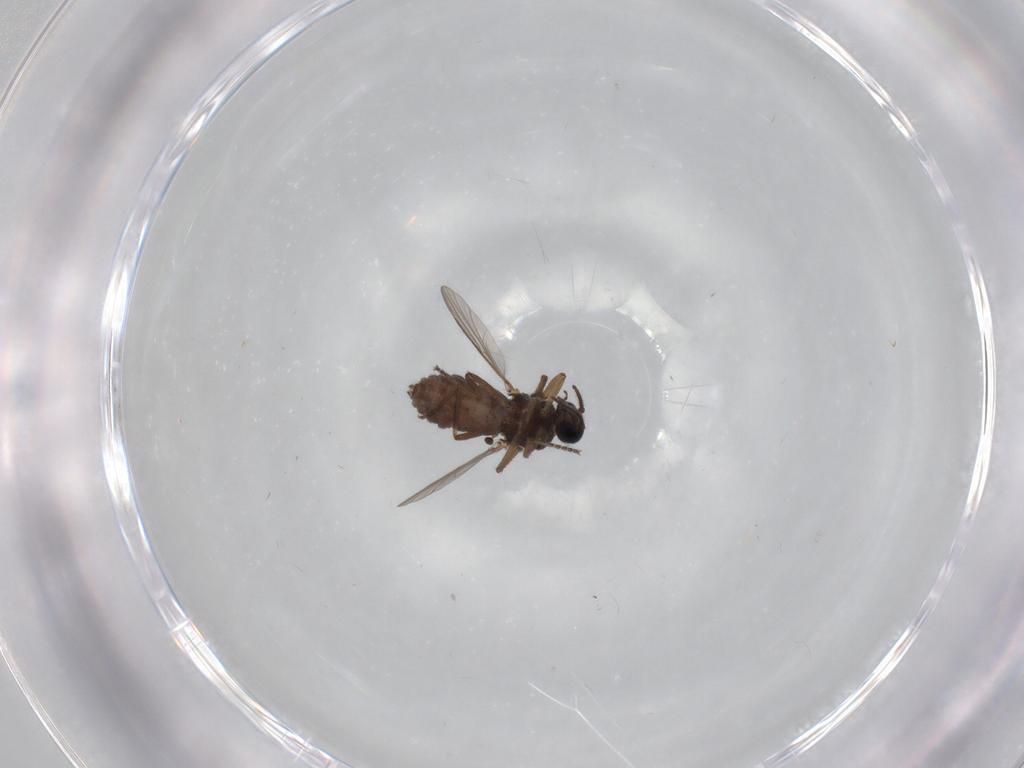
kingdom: Animalia
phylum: Arthropoda
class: Insecta
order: Diptera
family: Ceratopogonidae
